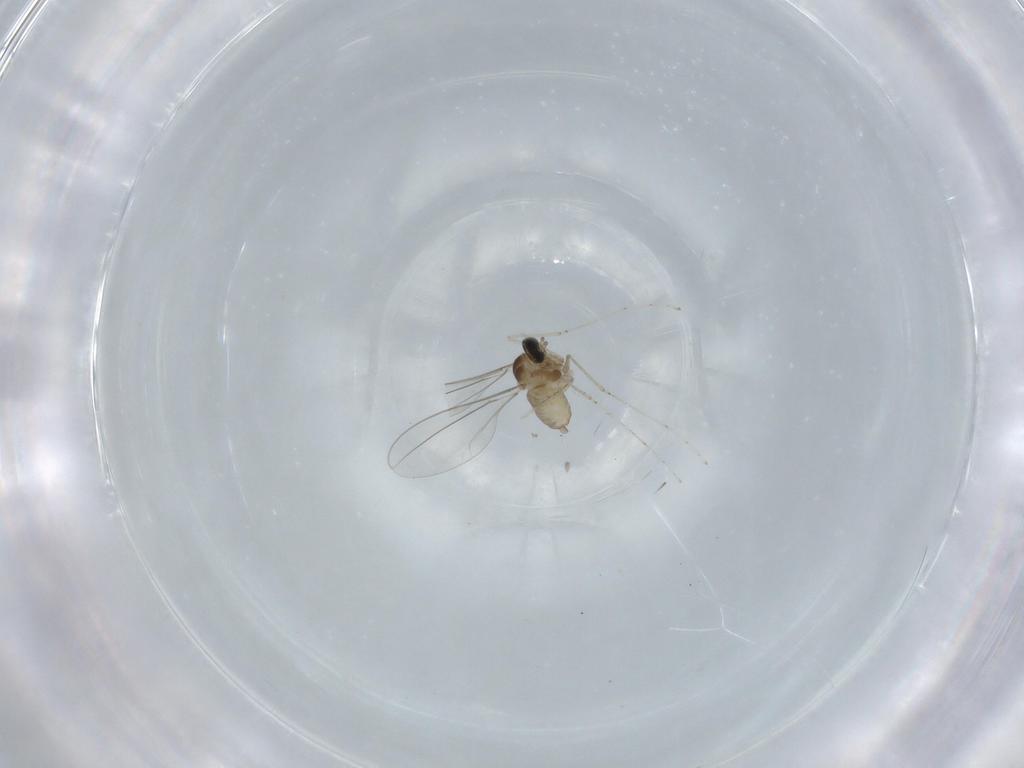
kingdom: Animalia
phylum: Arthropoda
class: Insecta
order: Diptera
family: Cecidomyiidae
